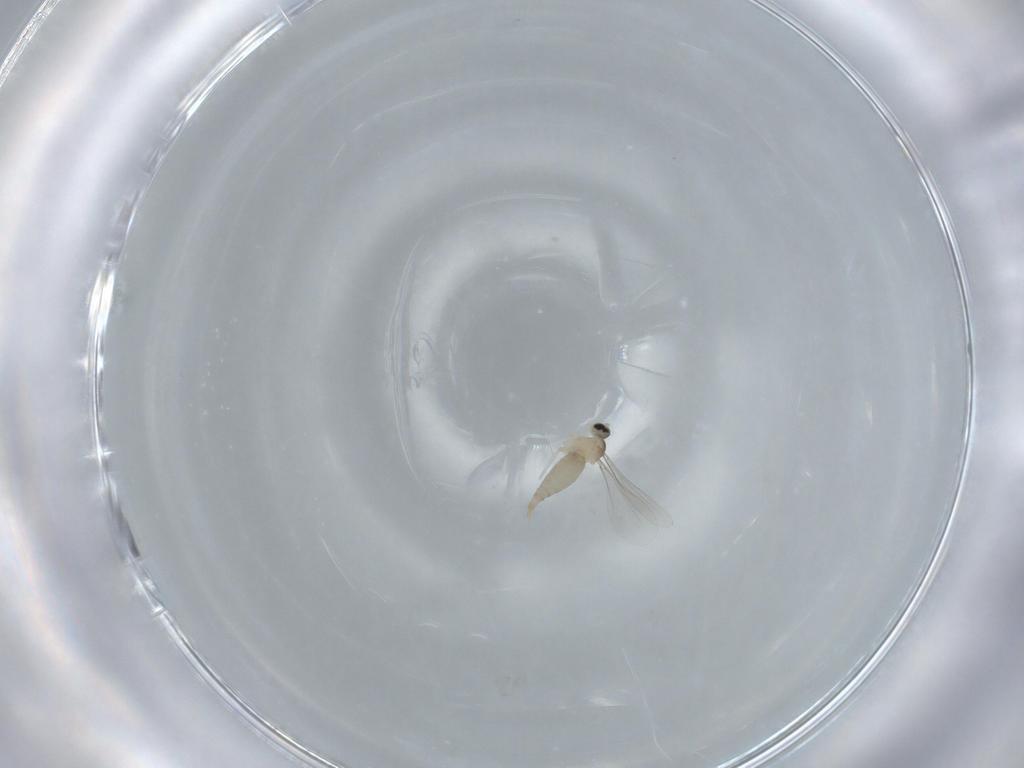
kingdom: Animalia
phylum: Arthropoda
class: Insecta
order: Diptera
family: Cecidomyiidae
